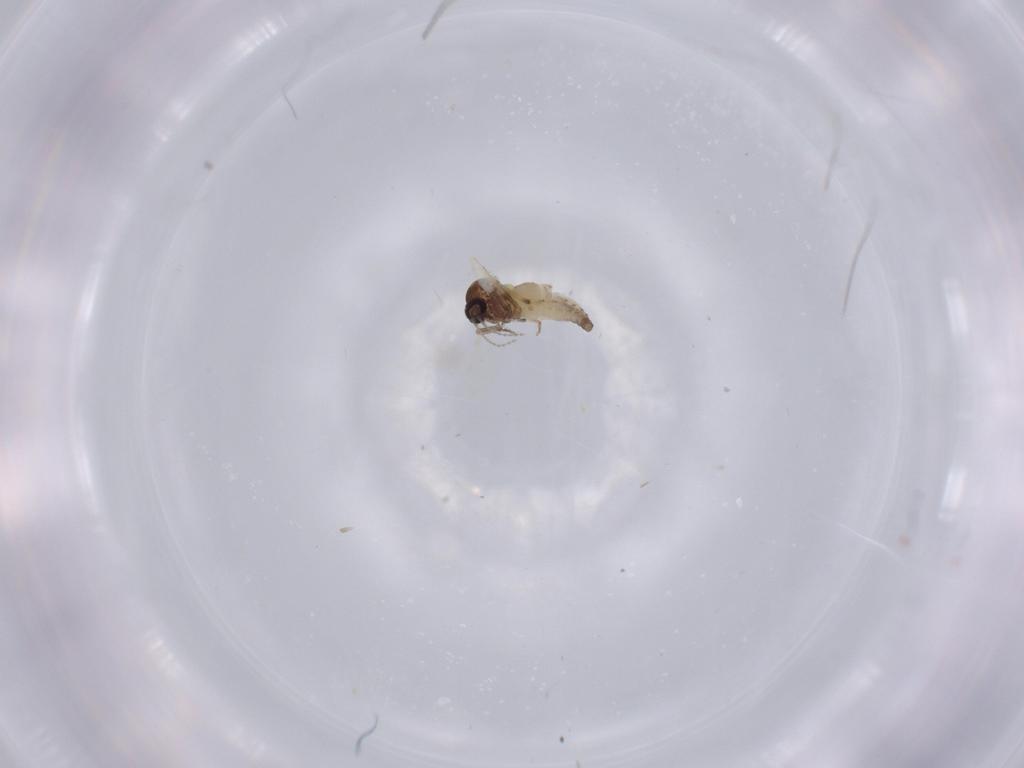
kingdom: Animalia
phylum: Arthropoda
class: Insecta
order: Diptera
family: Ceratopogonidae
